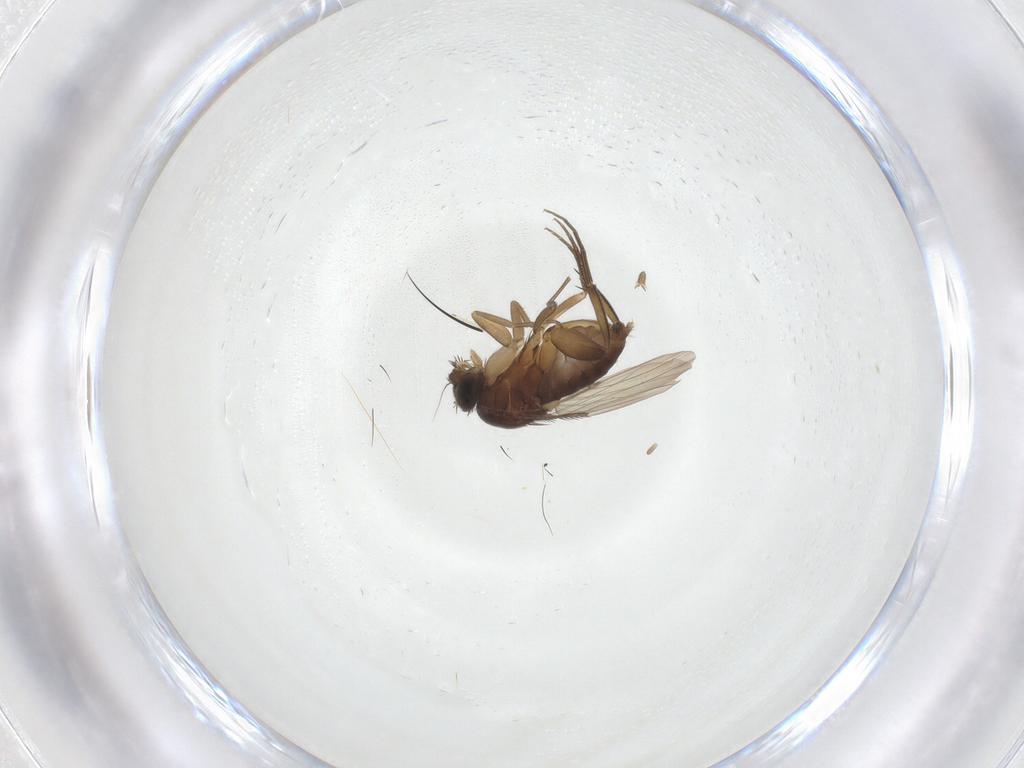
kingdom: Animalia
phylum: Arthropoda
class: Insecta
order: Diptera
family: Phoridae
